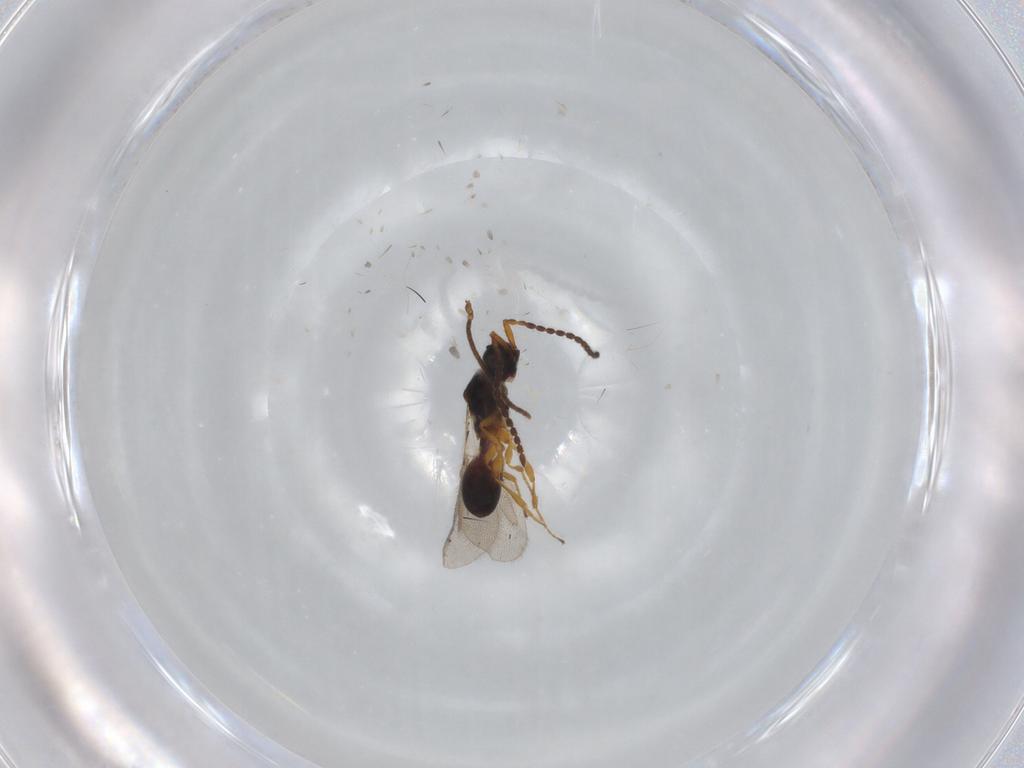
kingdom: Animalia
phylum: Arthropoda
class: Insecta
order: Hymenoptera
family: Diapriidae
